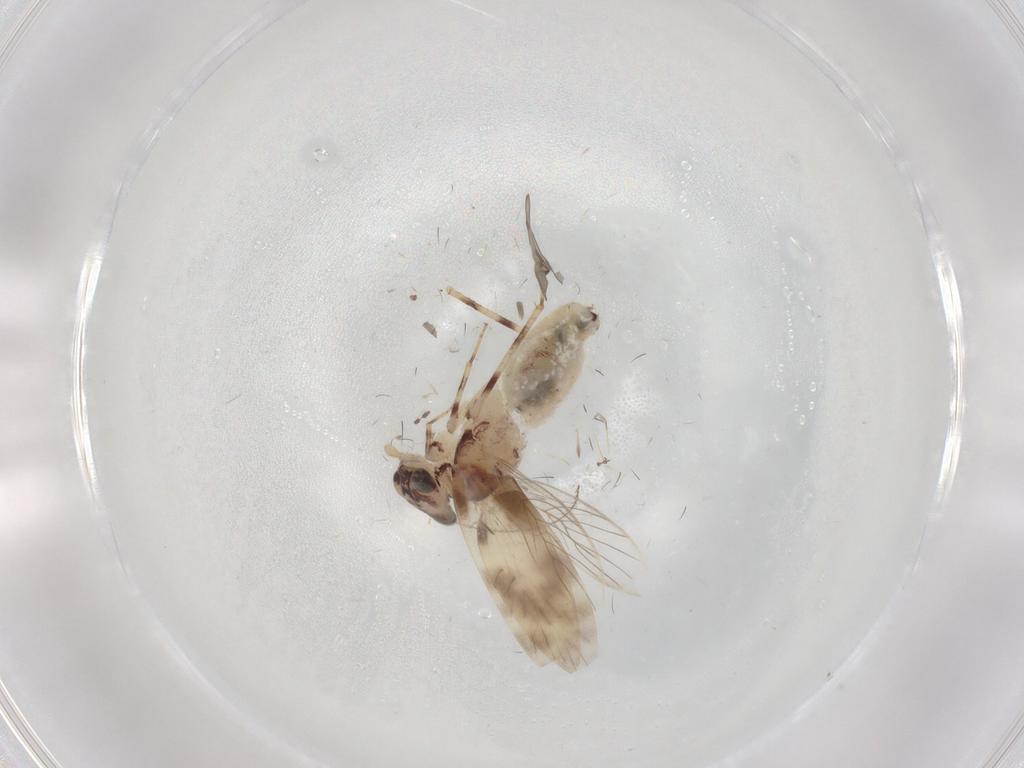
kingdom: Animalia
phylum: Arthropoda
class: Insecta
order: Psocodea
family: Lepidopsocidae
